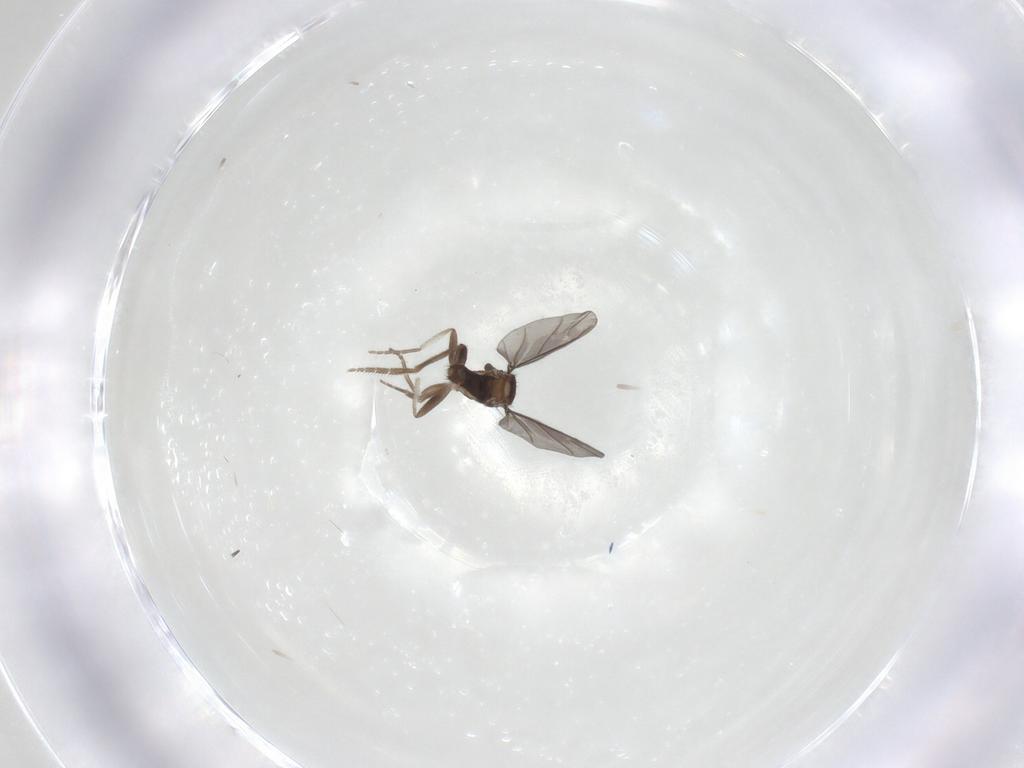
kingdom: Animalia
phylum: Arthropoda
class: Insecta
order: Diptera
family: Phoridae
